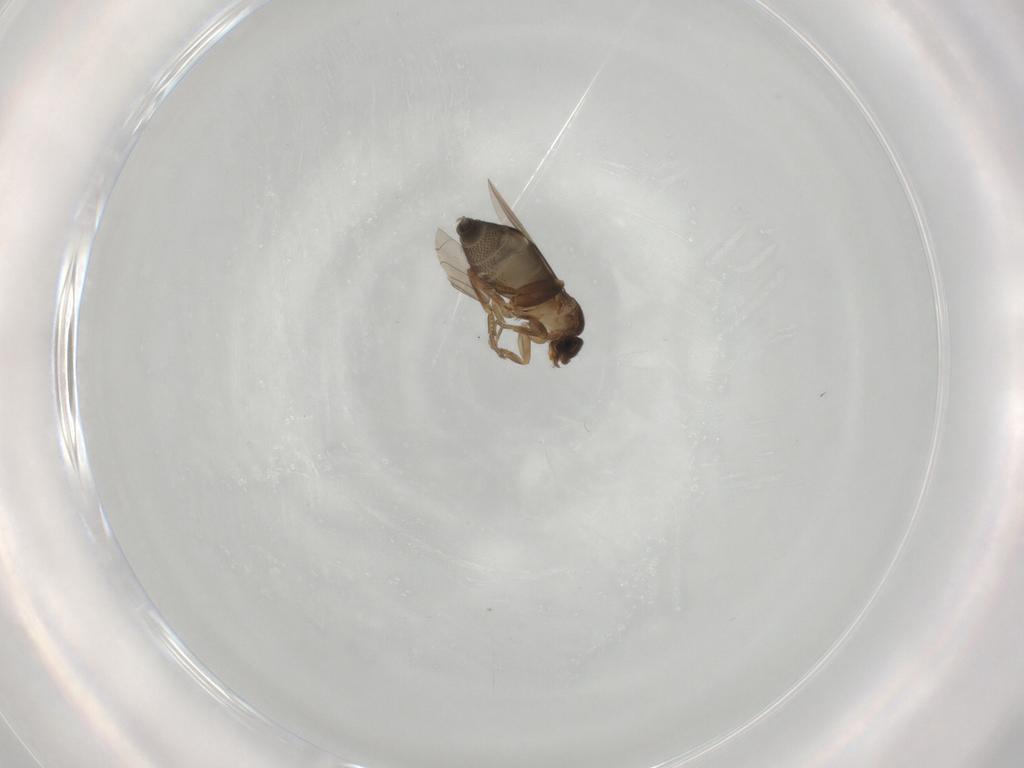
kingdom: Animalia
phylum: Arthropoda
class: Insecta
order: Diptera
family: Phoridae
